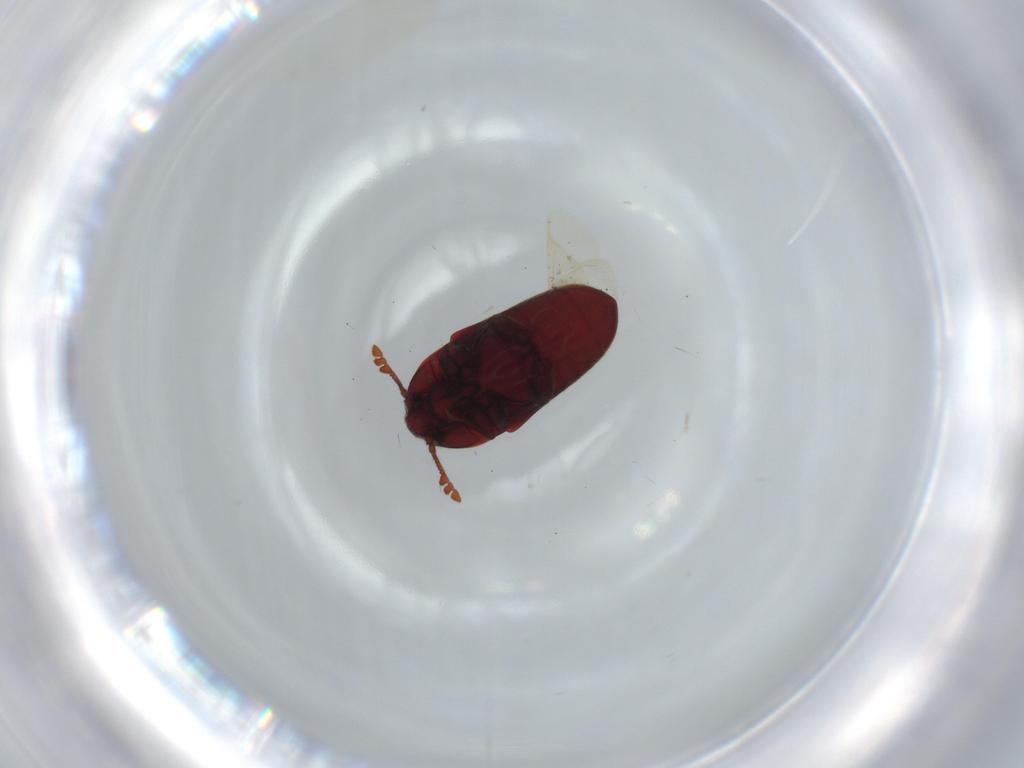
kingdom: Animalia
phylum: Arthropoda
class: Insecta
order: Coleoptera
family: Throscidae
